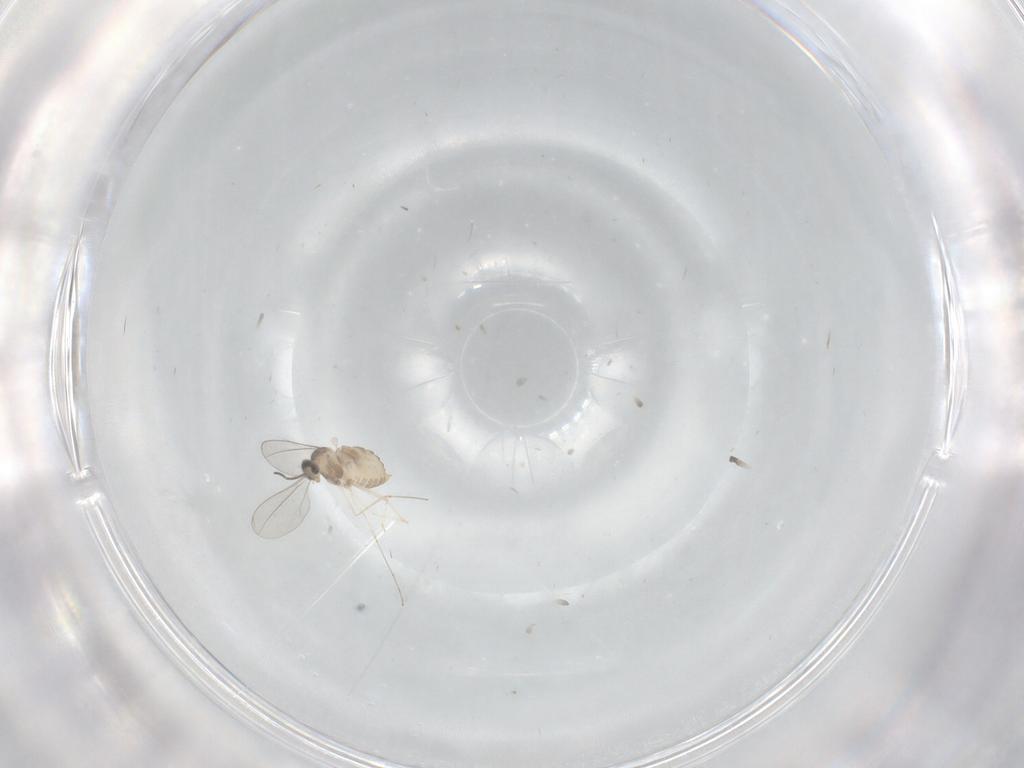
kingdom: Animalia
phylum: Arthropoda
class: Insecta
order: Diptera
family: Cecidomyiidae
